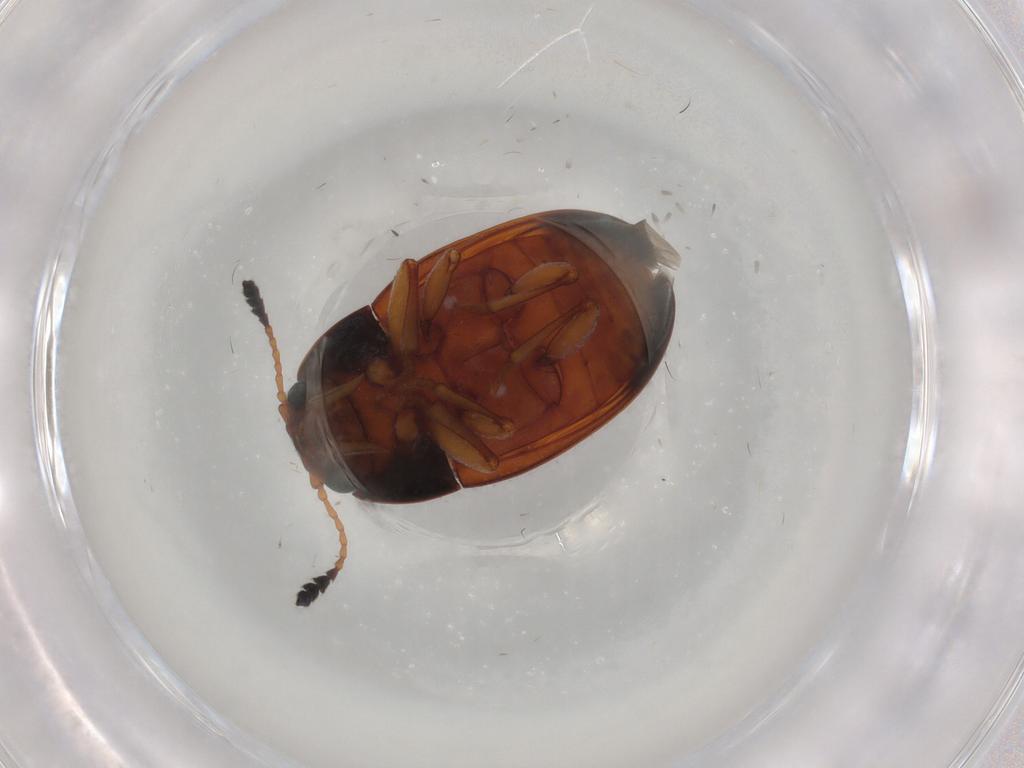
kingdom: Animalia
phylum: Arthropoda
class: Insecta
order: Coleoptera
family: Erotylidae
